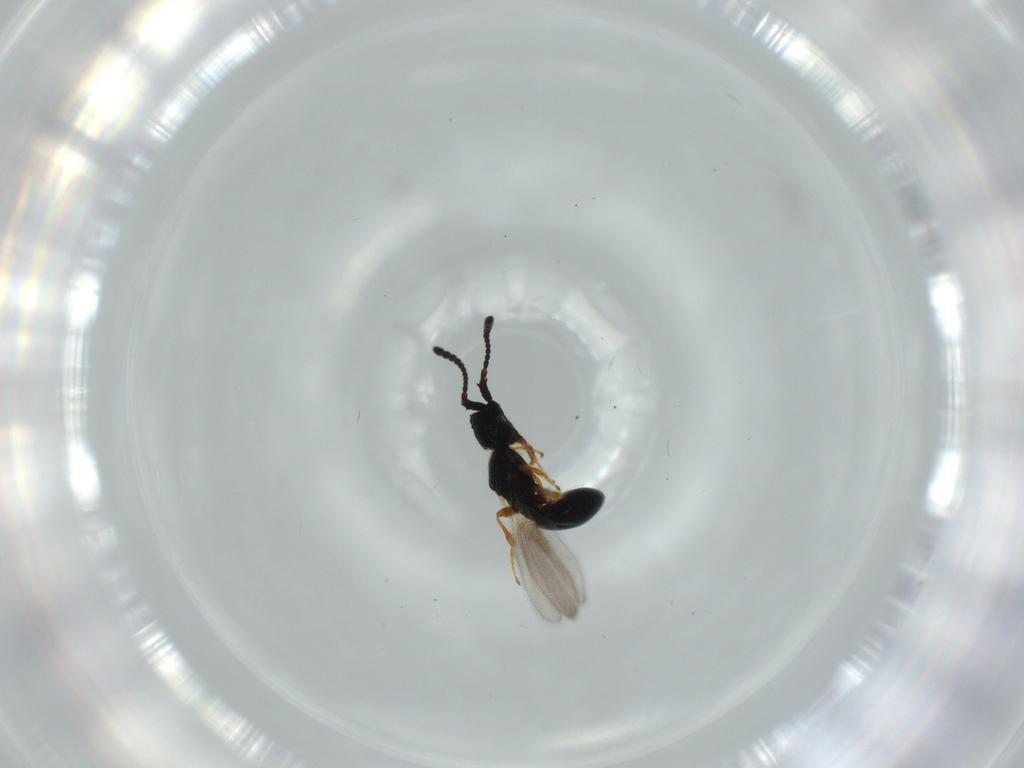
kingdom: Animalia
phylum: Arthropoda
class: Insecta
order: Hymenoptera
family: Diapriidae
